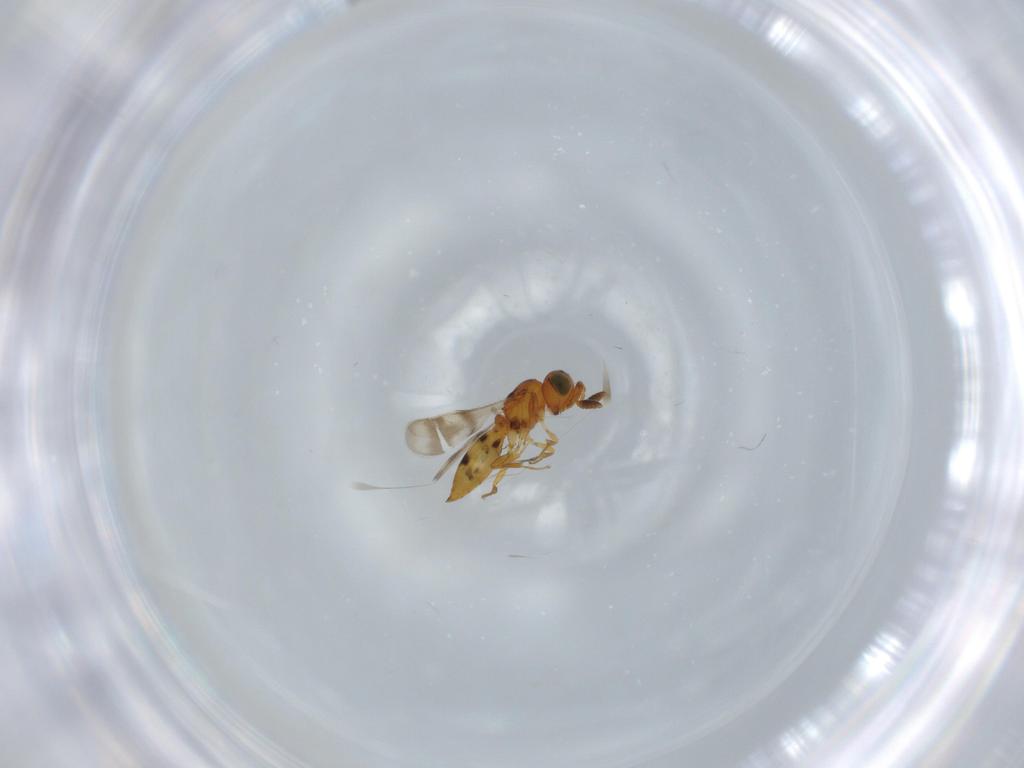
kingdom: Animalia
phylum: Arthropoda
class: Insecta
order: Hymenoptera
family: Scelionidae
